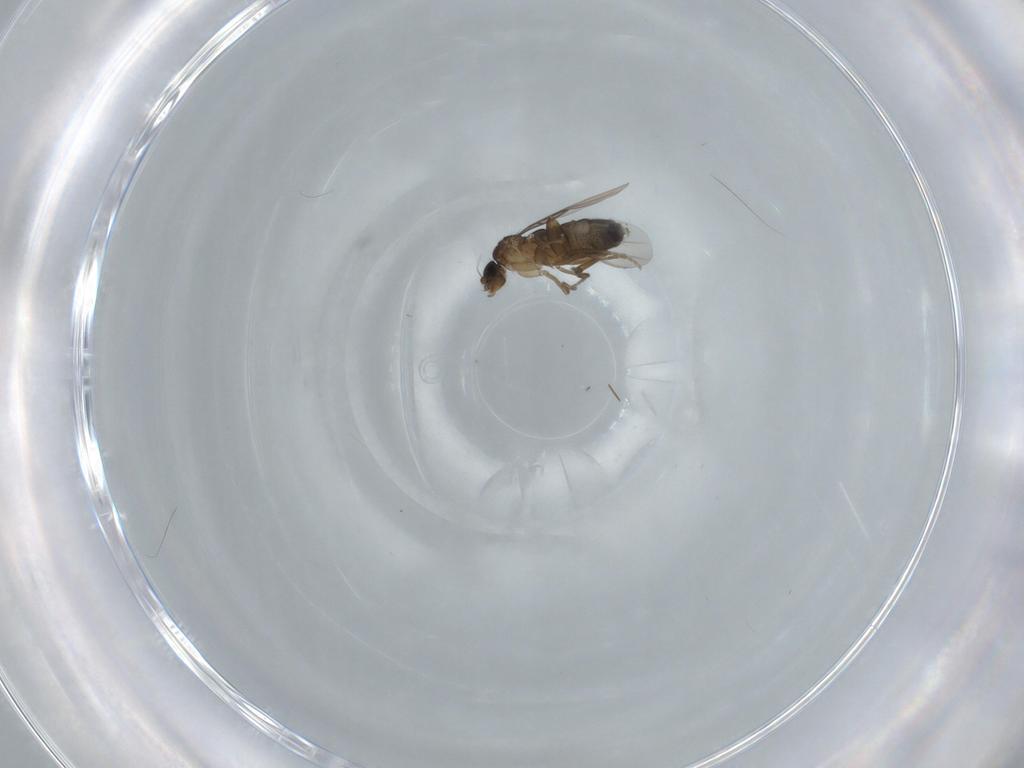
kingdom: Animalia
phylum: Arthropoda
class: Insecta
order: Diptera
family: Phoridae
